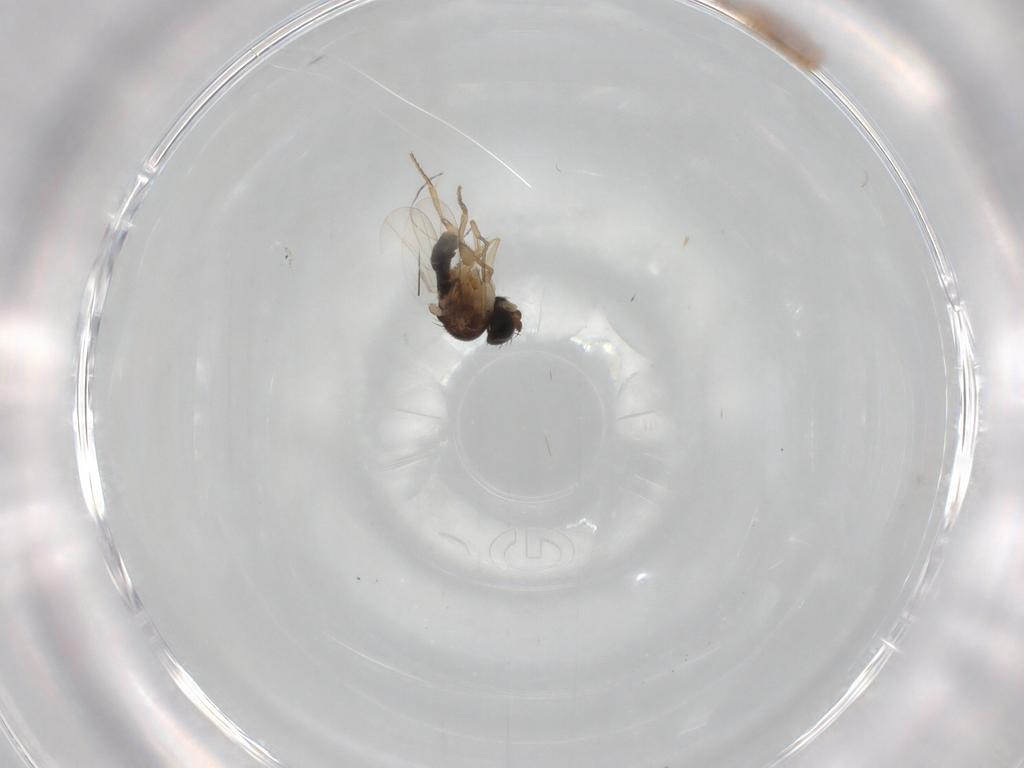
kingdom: Animalia
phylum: Arthropoda
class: Insecta
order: Diptera
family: Phoridae
